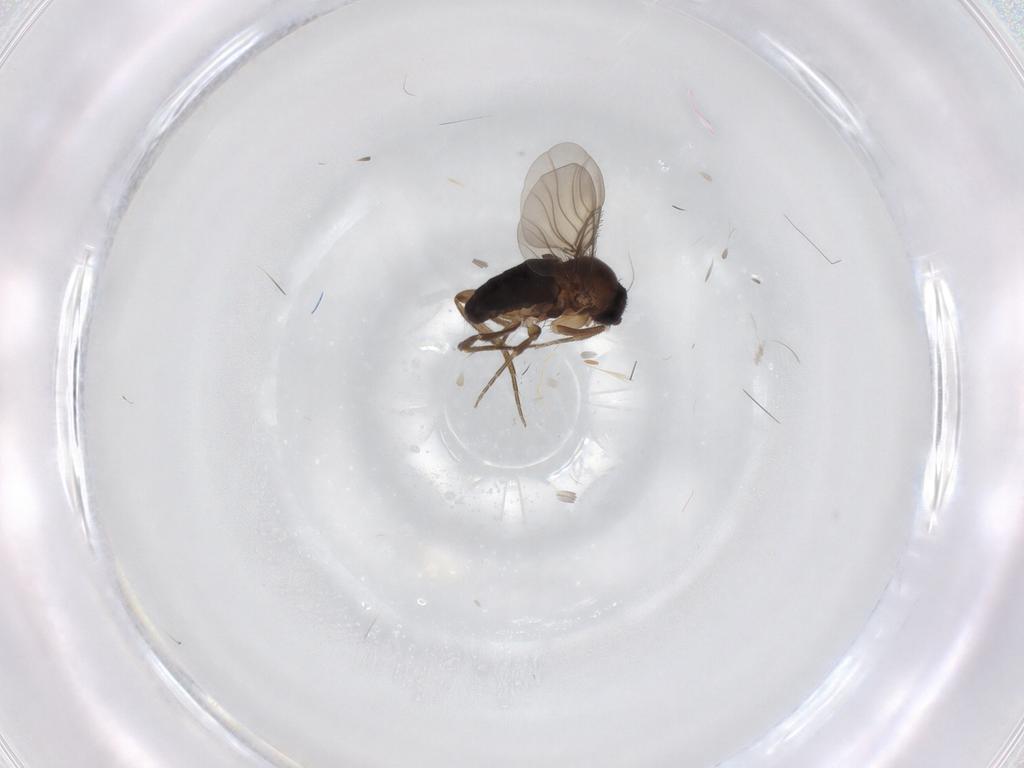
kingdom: Animalia
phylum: Arthropoda
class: Insecta
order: Diptera
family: Phoridae
